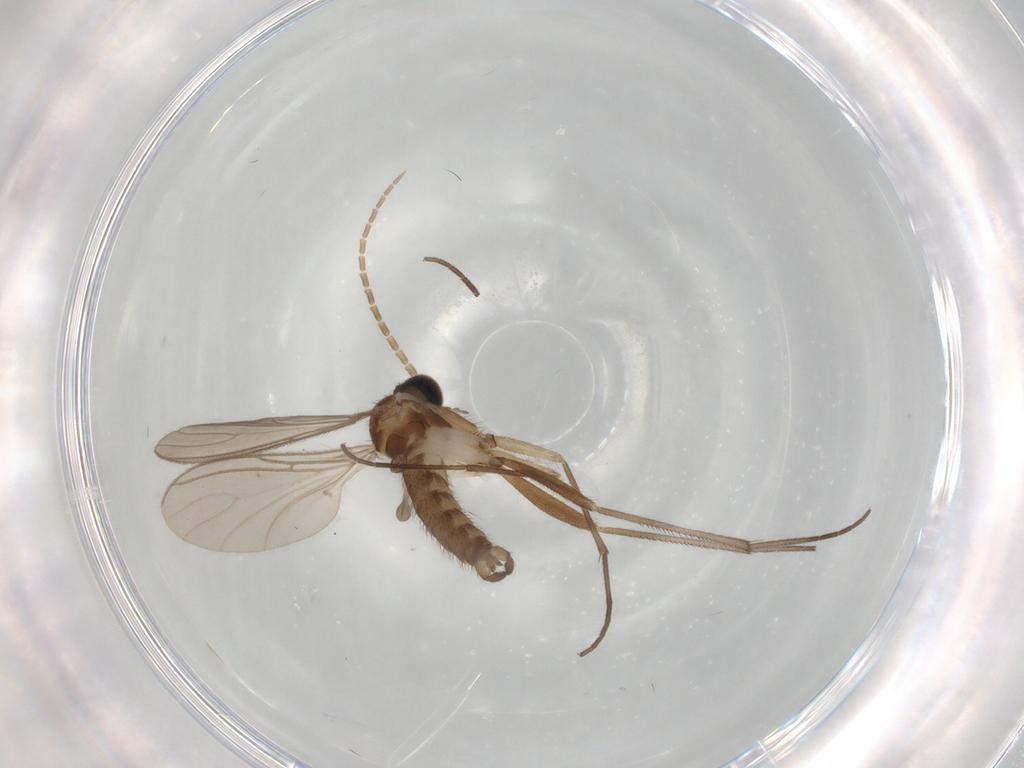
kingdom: Animalia
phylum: Arthropoda
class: Insecta
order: Diptera
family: Sciaridae
